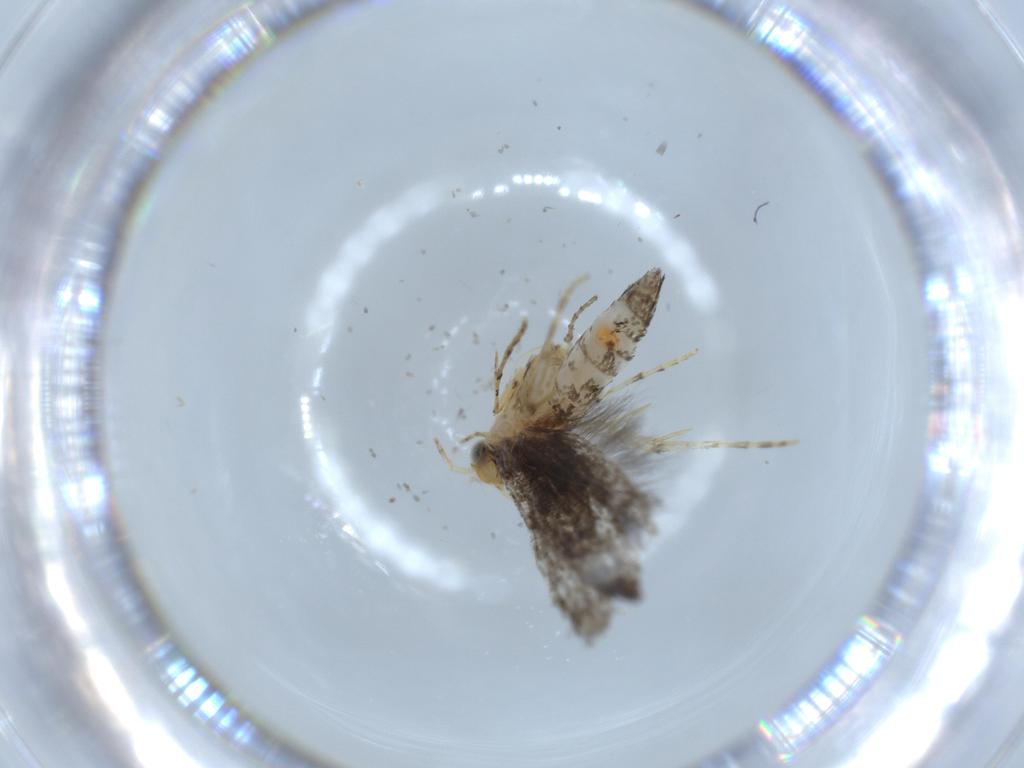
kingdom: Animalia
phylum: Arthropoda
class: Insecta
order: Lepidoptera
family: Argyresthiidae
